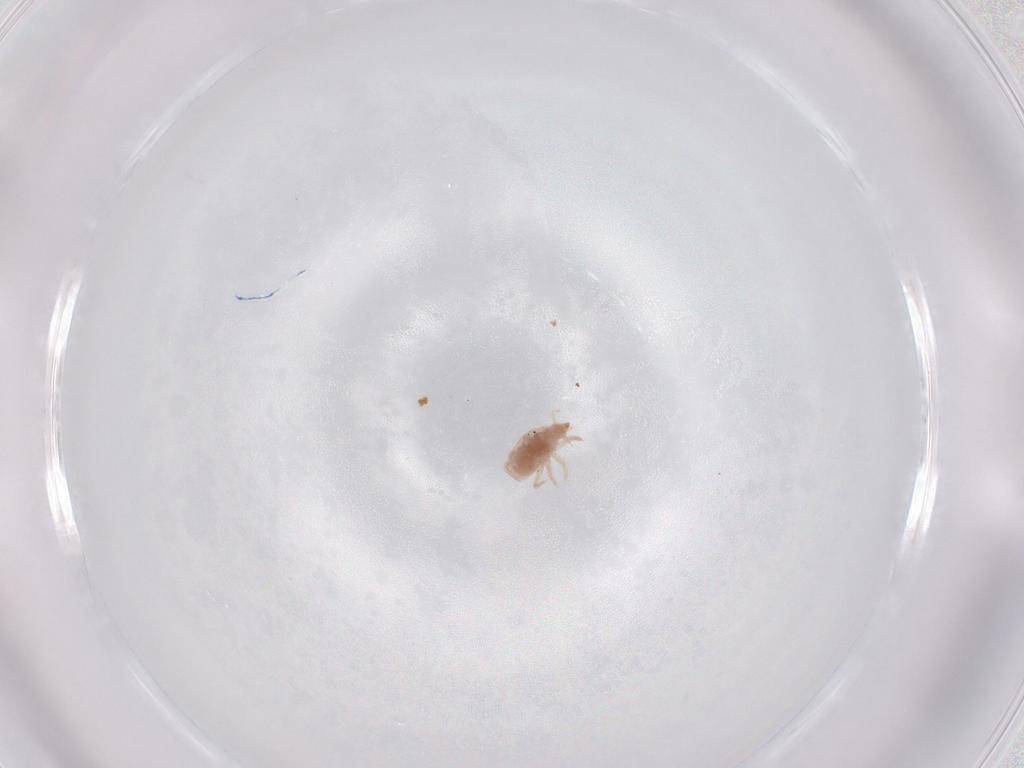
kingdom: Animalia
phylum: Arthropoda
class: Arachnida
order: Trombidiformes
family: Bdellidae
